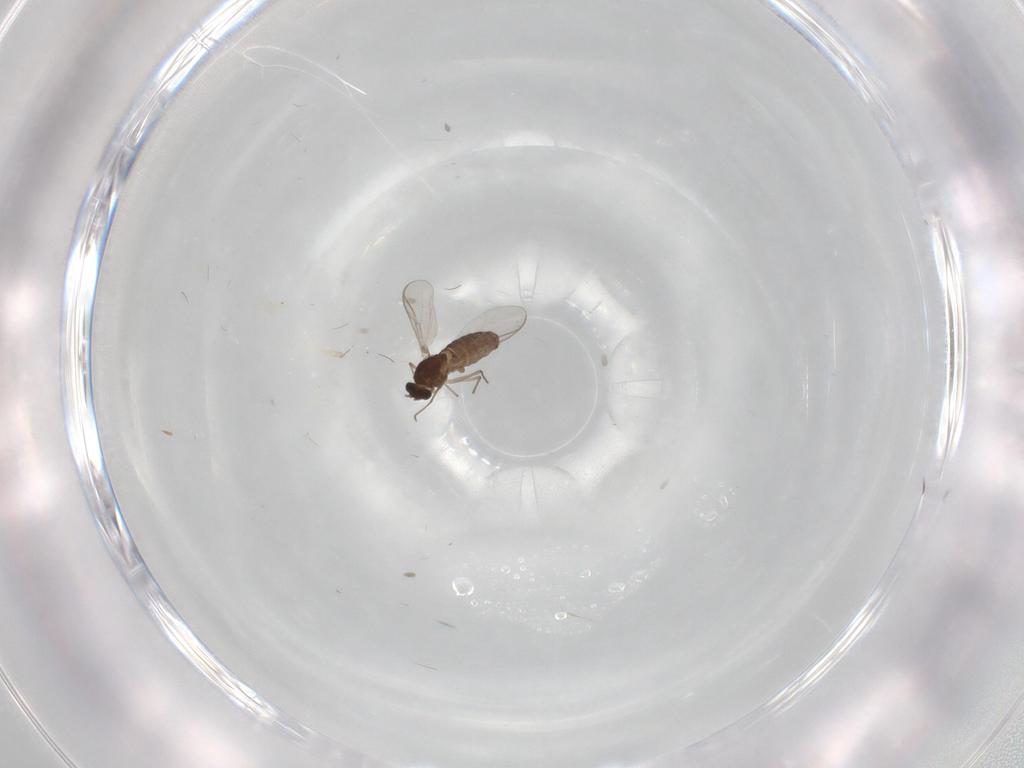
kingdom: Animalia
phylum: Arthropoda
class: Insecta
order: Diptera
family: Chironomidae
